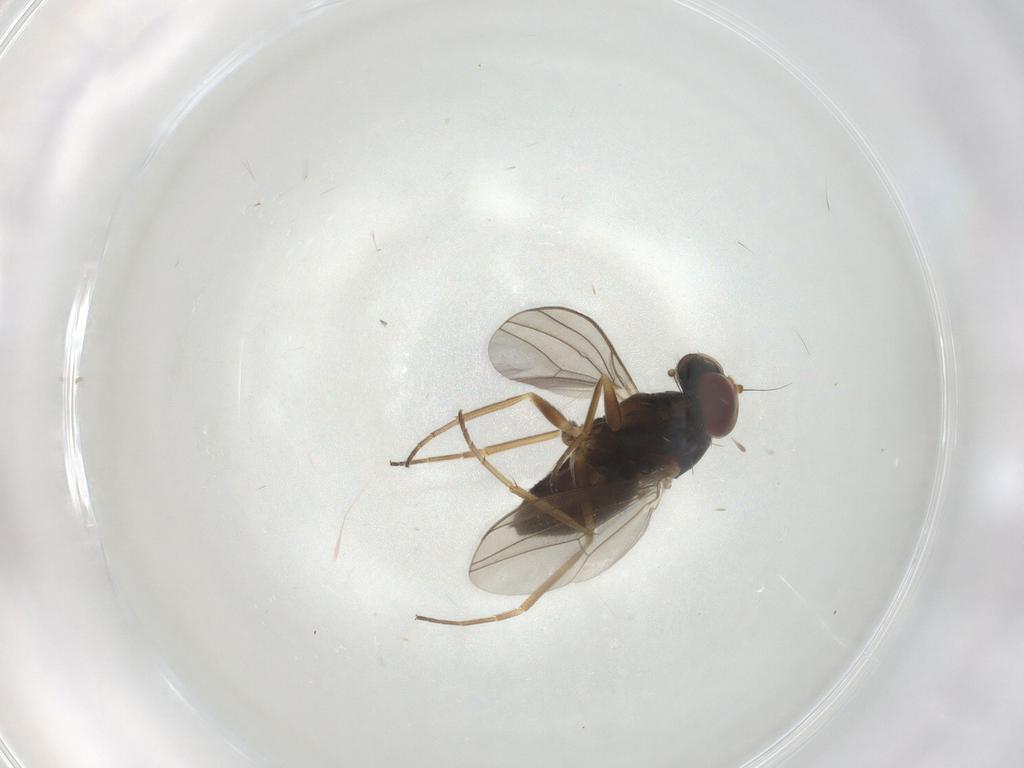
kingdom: Animalia
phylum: Arthropoda
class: Insecta
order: Diptera
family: Dolichopodidae
